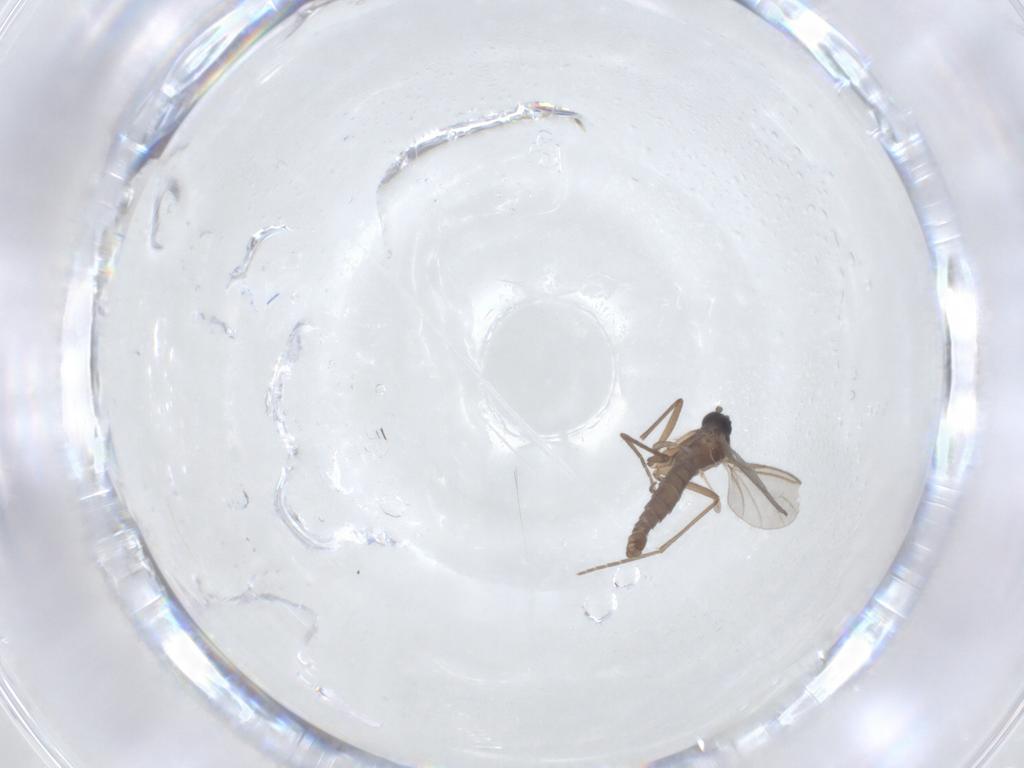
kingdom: Animalia
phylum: Arthropoda
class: Insecta
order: Diptera
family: Sciaridae
